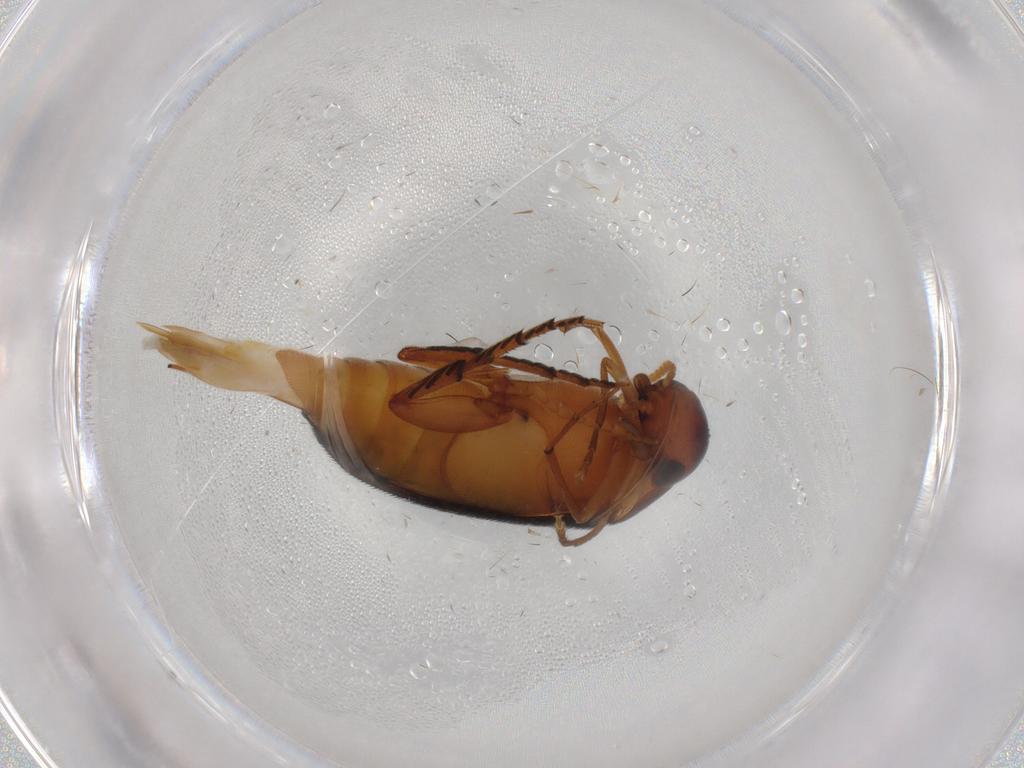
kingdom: Animalia
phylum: Arthropoda
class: Insecta
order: Coleoptera
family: Mordellidae
